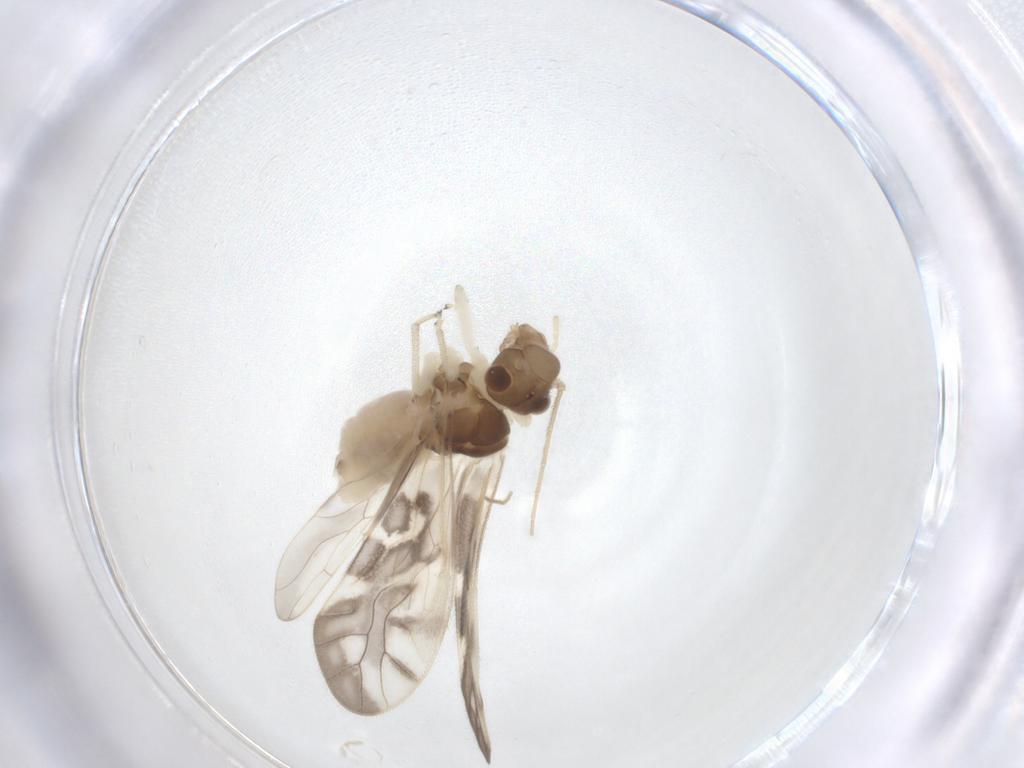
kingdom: Animalia
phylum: Arthropoda
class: Insecta
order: Psocodea
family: Caeciliusidae
